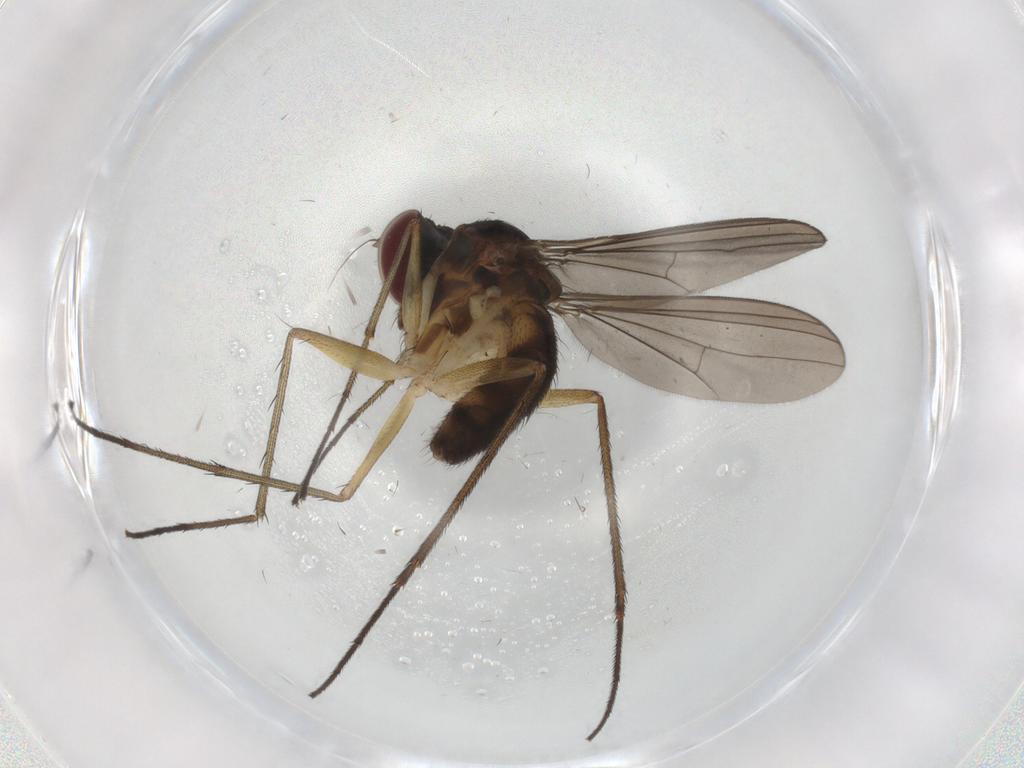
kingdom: Animalia
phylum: Arthropoda
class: Insecta
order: Diptera
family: Dolichopodidae
